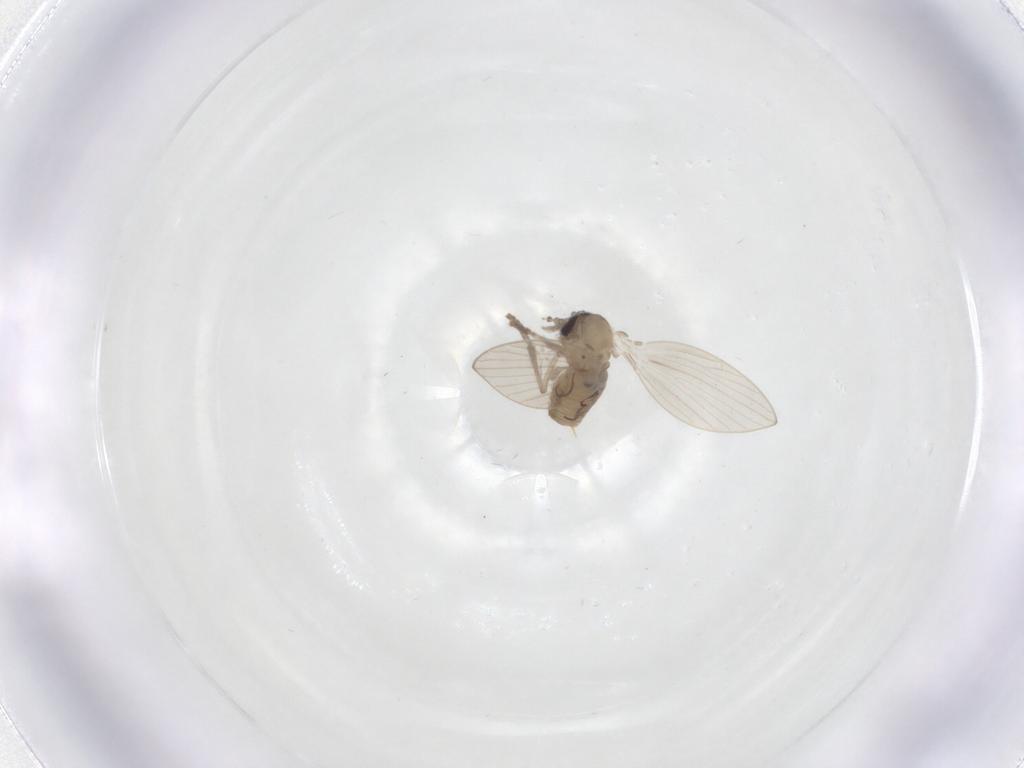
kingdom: Animalia
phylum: Arthropoda
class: Insecta
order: Diptera
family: Psychodidae
